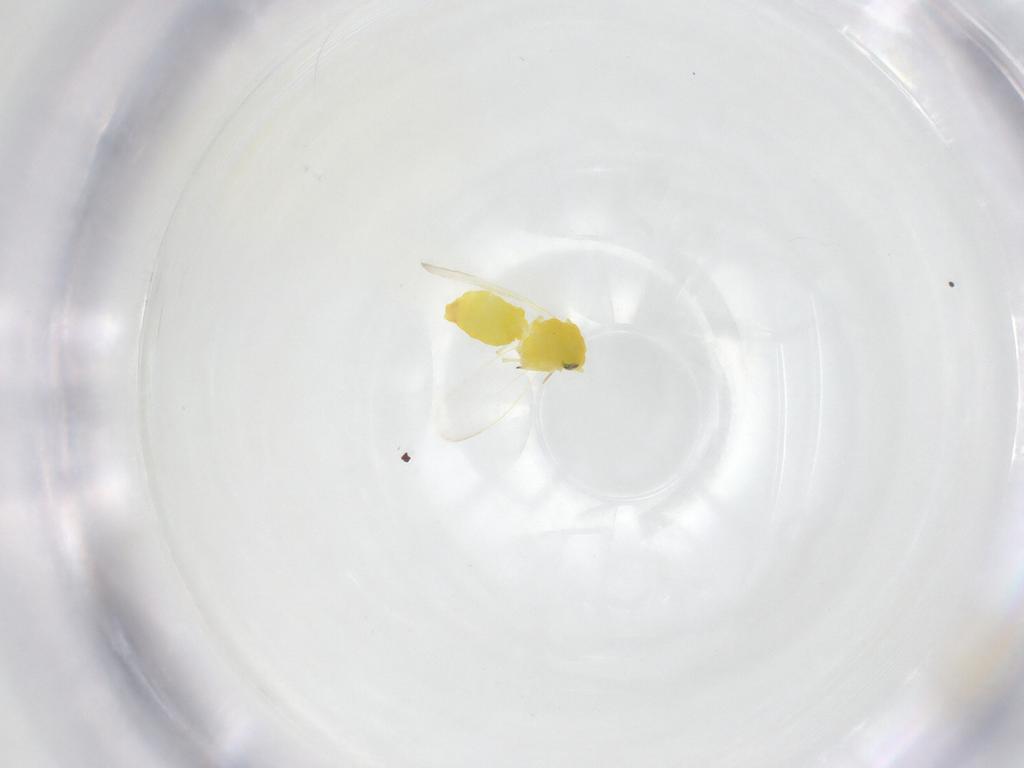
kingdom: Animalia
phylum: Arthropoda
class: Insecta
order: Hemiptera
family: Aleyrodidae
